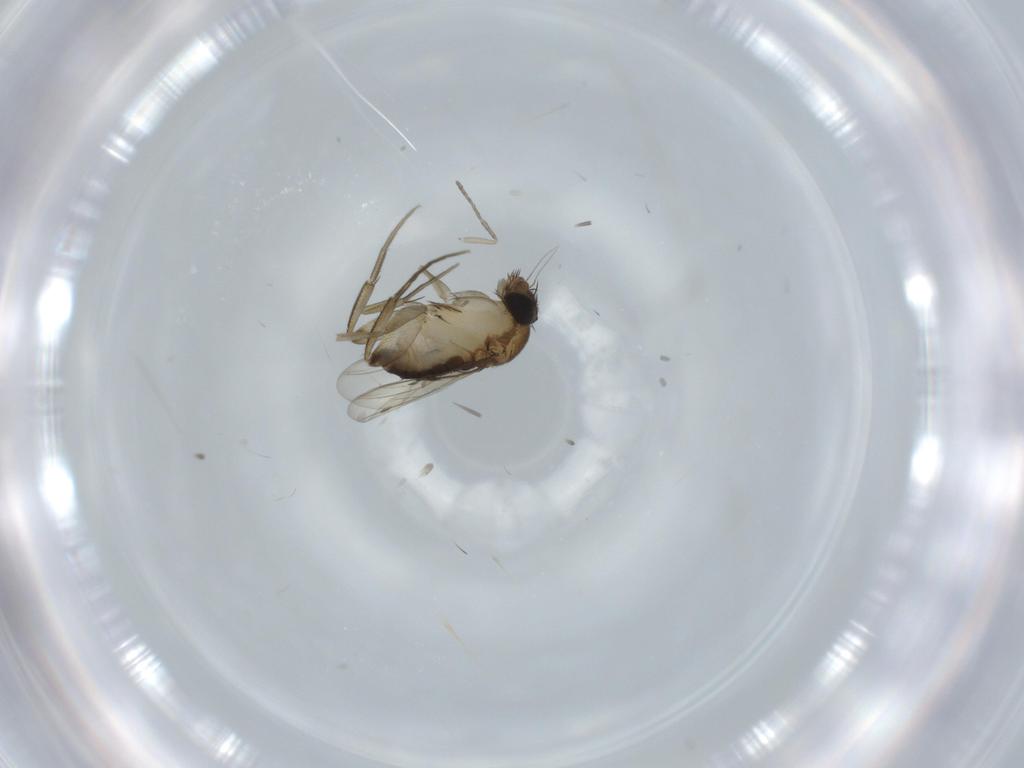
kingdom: Animalia
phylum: Arthropoda
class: Insecta
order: Diptera
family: Phoridae
